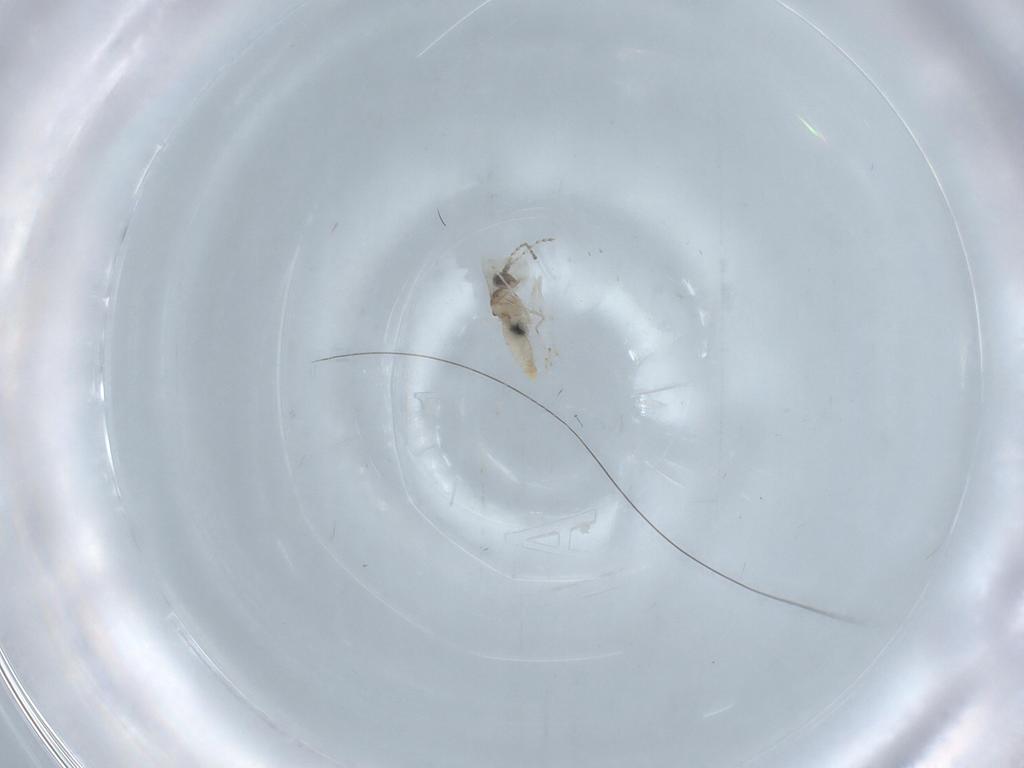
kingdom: Animalia
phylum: Arthropoda
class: Insecta
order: Diptera
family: Sciaridae
